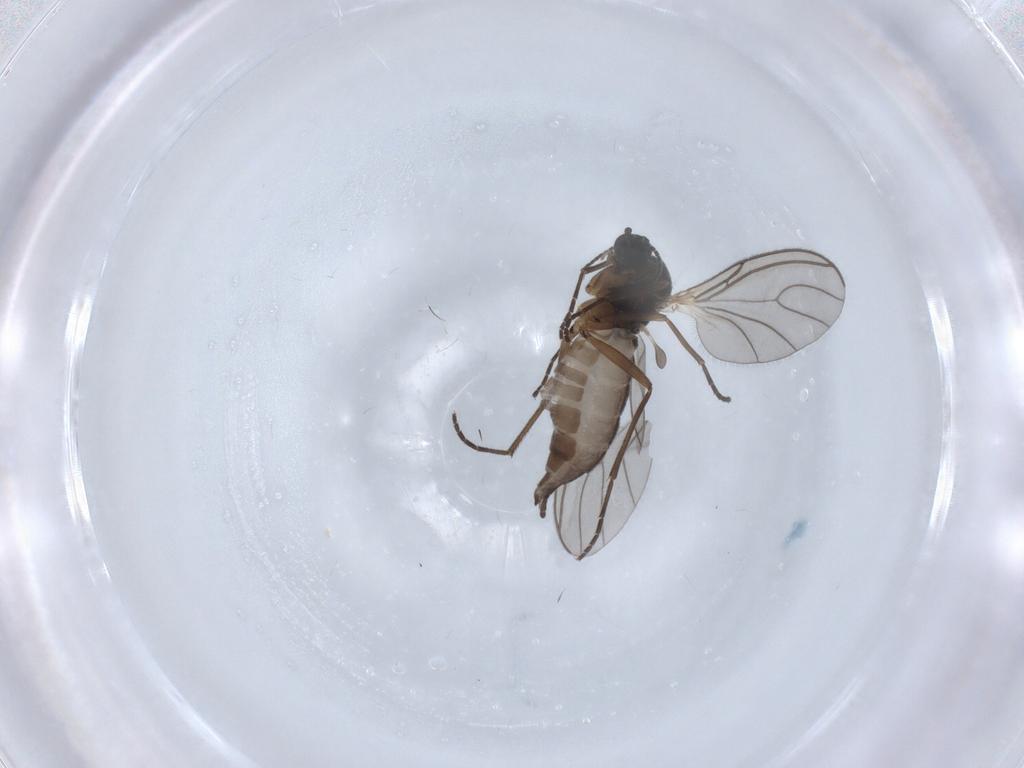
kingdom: Animalia
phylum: Arthropoda
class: Insecta
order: Diptera
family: Sciaridae
